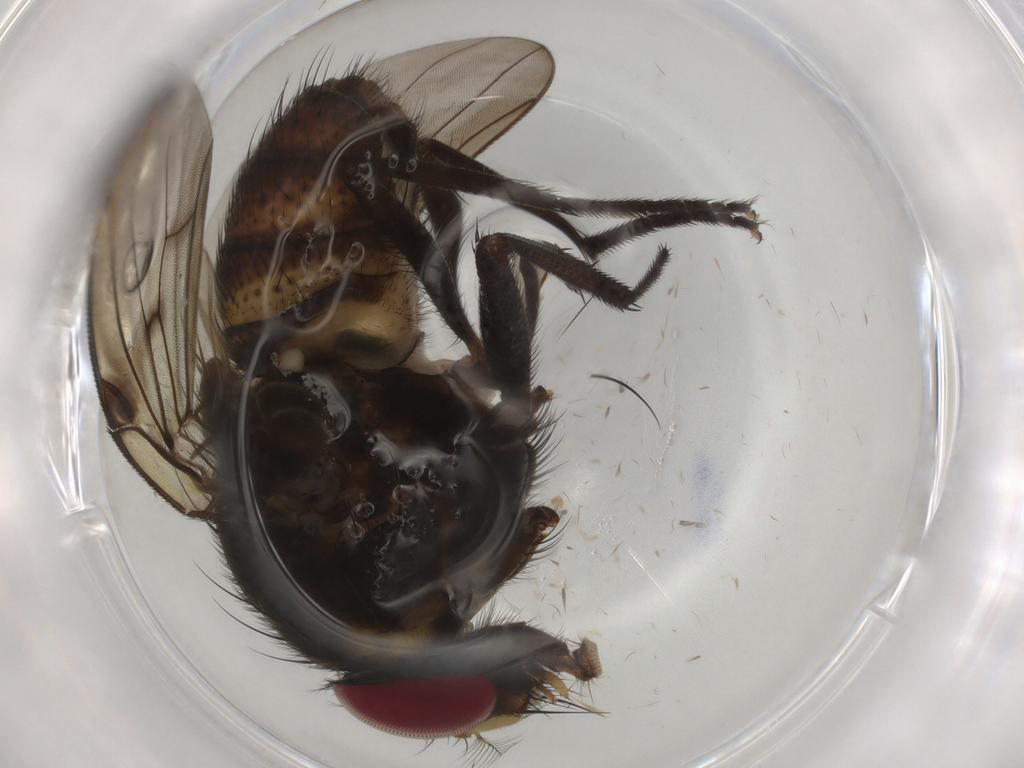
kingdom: Animalia
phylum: Arthropoda
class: Insecta
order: Diptera
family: Muscidae
